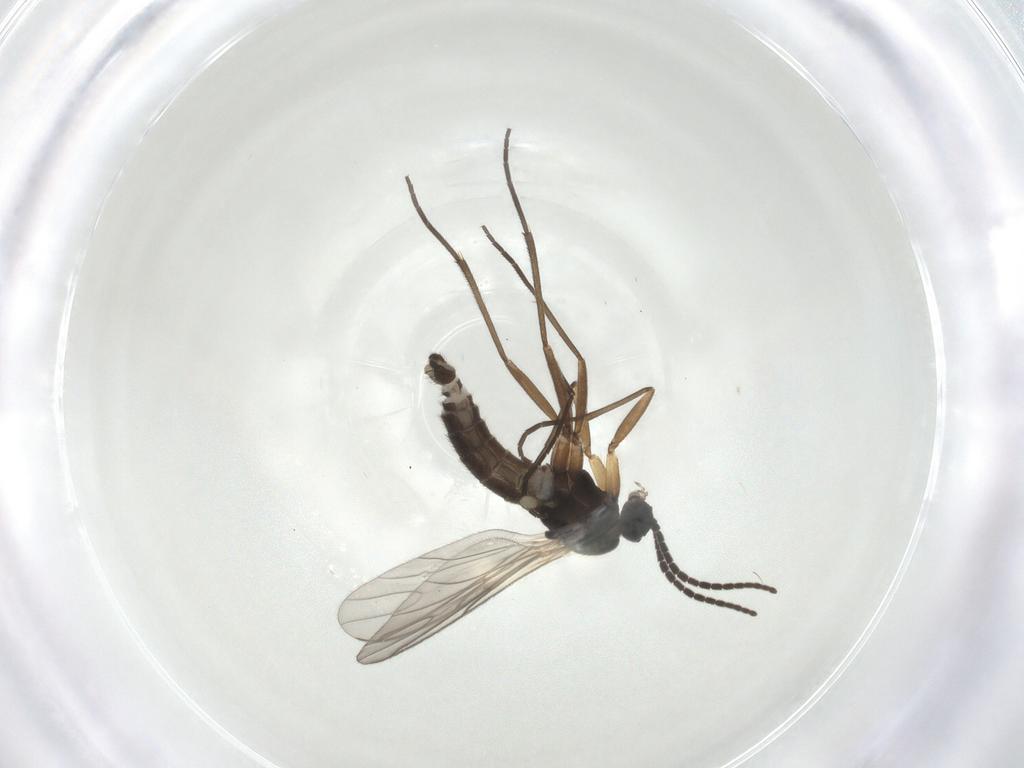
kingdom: Animalia
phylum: Arthropoda
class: Insecta
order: Diptera
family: Sciaridae
